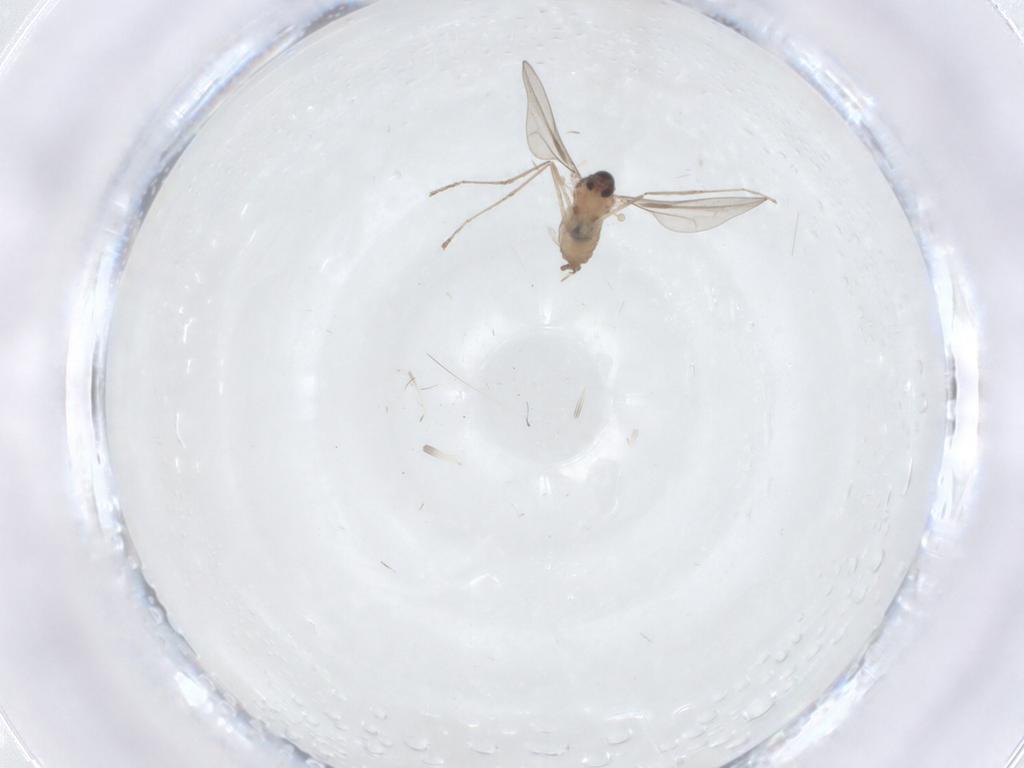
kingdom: Animalia
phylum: Arthropoda
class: Insecta
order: Diptera
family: Cecidomyiidae
